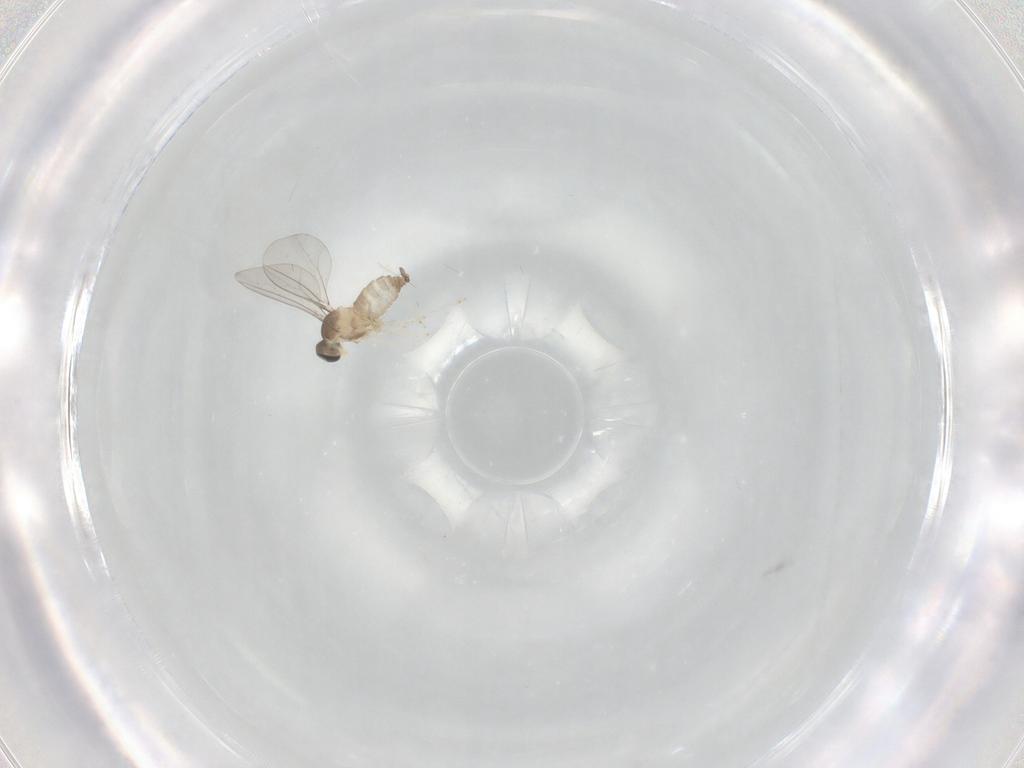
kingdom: Animalia
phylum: Arthropoda
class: Insecta
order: Diptera
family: Cecidomyiidae
